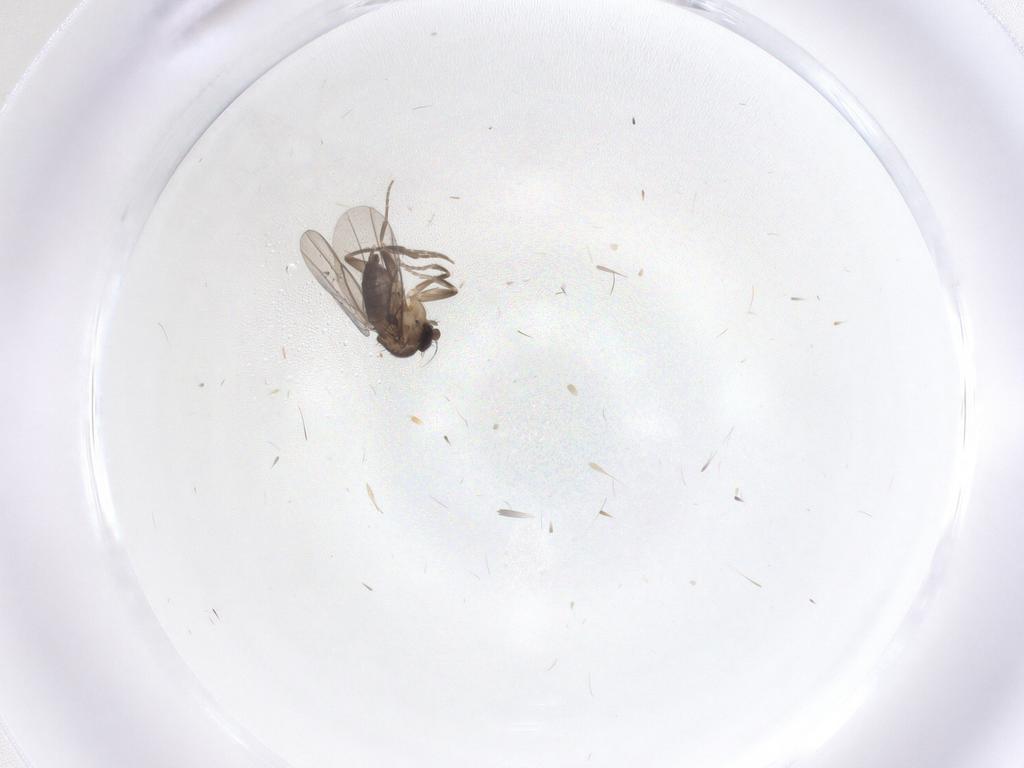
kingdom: Animalia
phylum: Arthropoda
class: Insecta
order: Diptera
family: Phoridae
